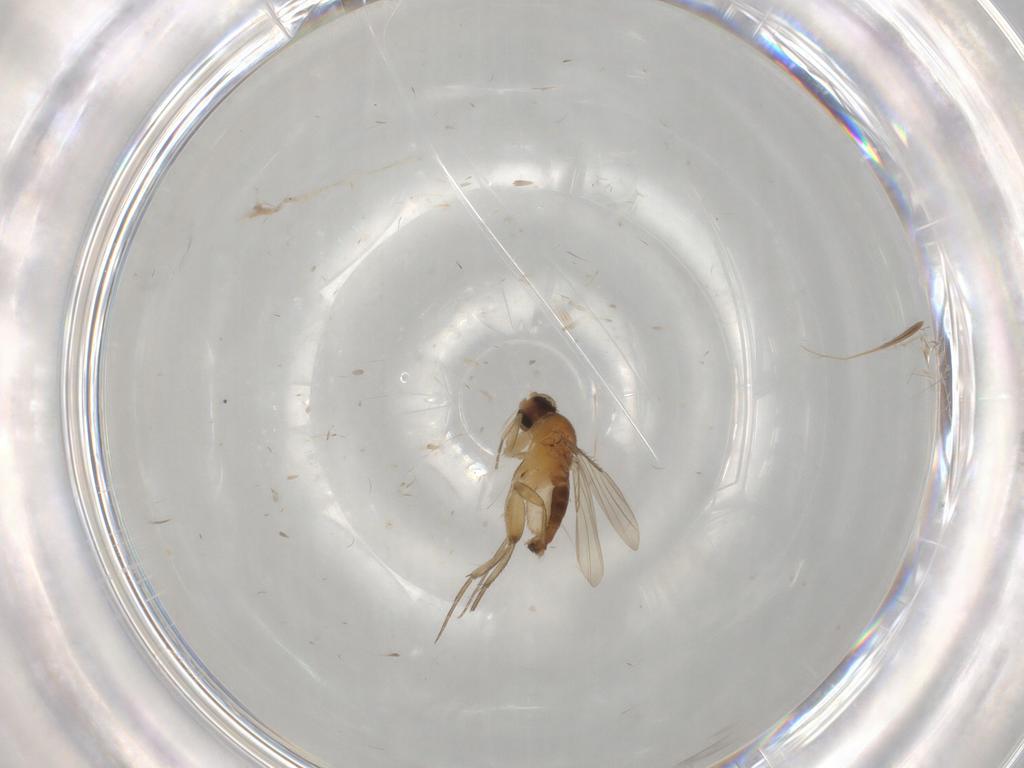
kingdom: Animalia
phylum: Arthropoda
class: Insecta
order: Diptera
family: Phoridae
